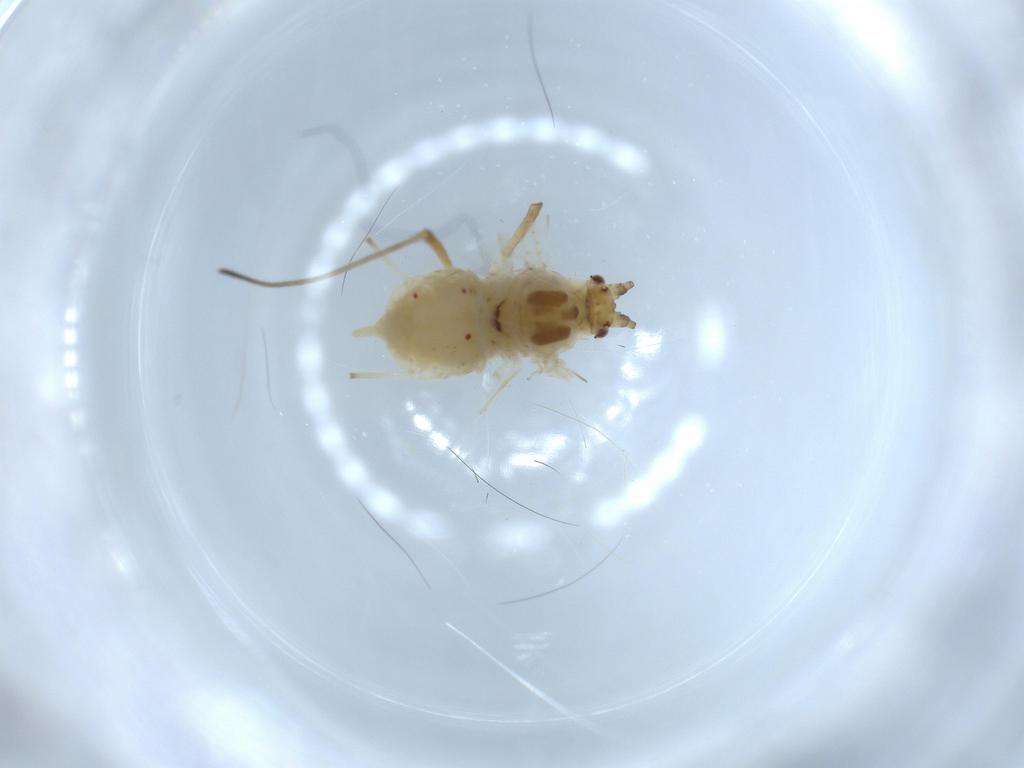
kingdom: Animalia
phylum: Arthropoda
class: Insecta
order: Hemiptera
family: Aphididae
